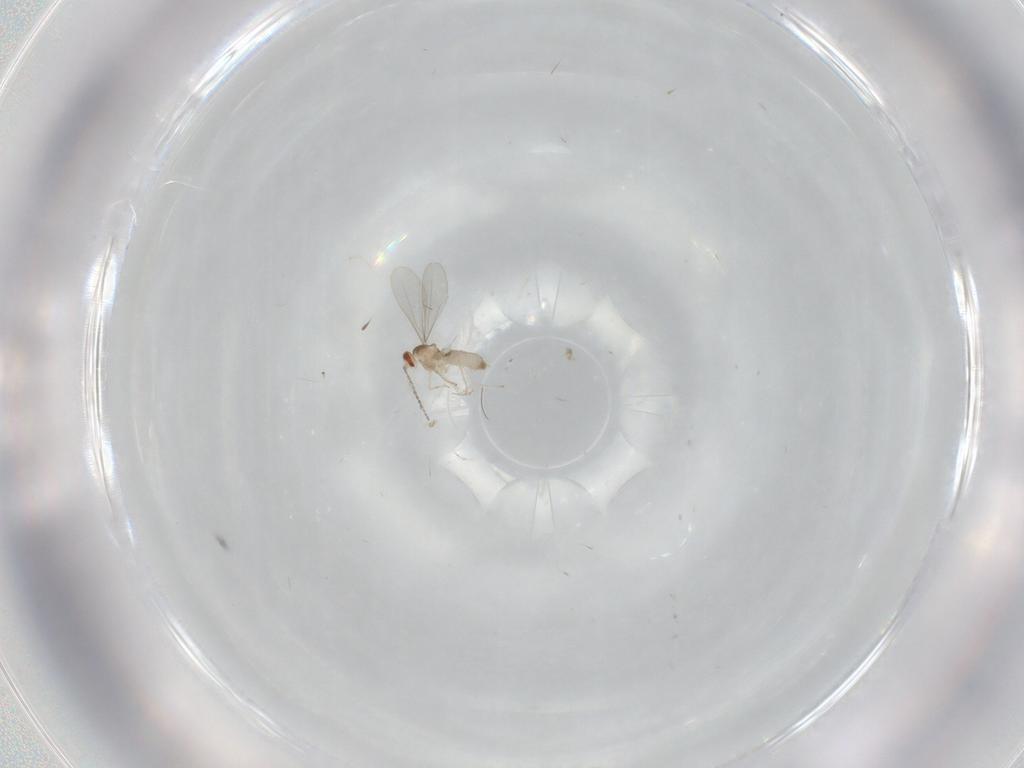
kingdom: Animalia
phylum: Arthropoda
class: Insecta
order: Diptera
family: Cecidomyiidae
